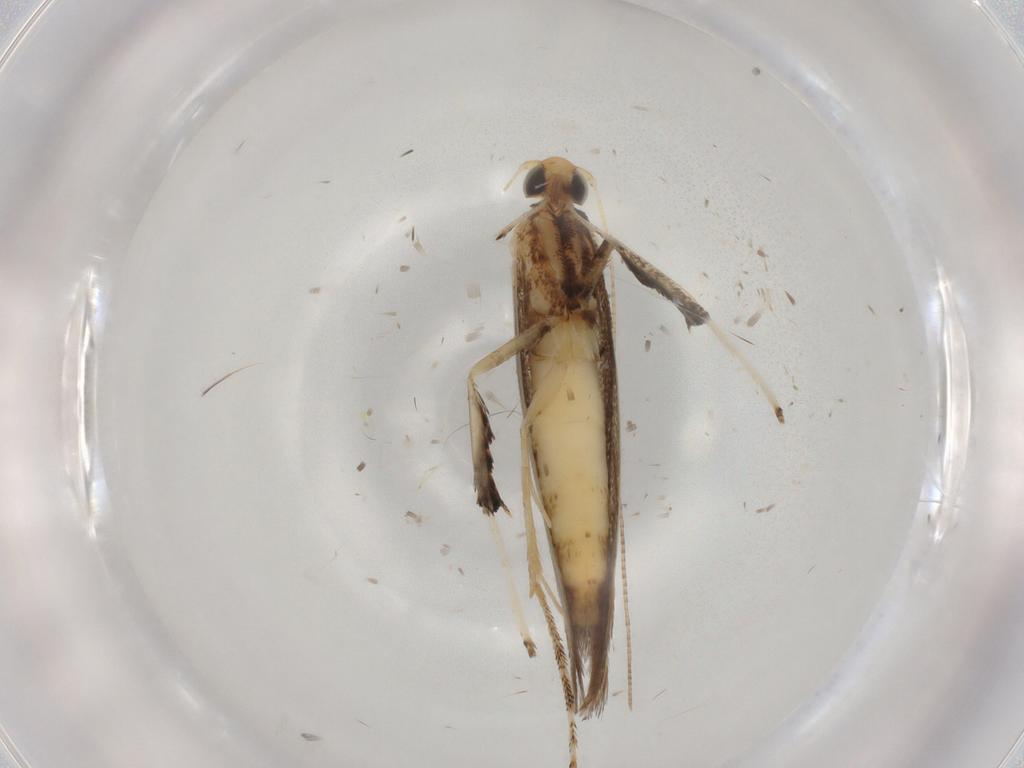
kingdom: Animalia
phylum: Arthropoda
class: Insecta
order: Lepidoptera
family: Gracillariidae
